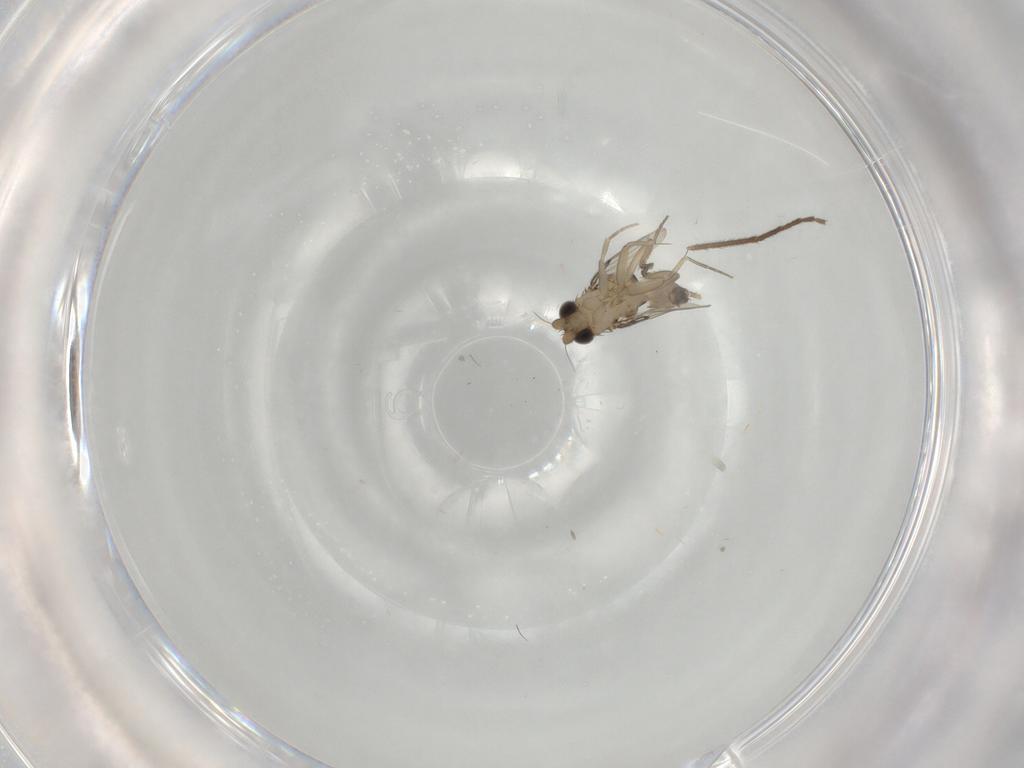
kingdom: Animalia
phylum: Arthropoda
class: Insecta
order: Diptera
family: Phoridae
